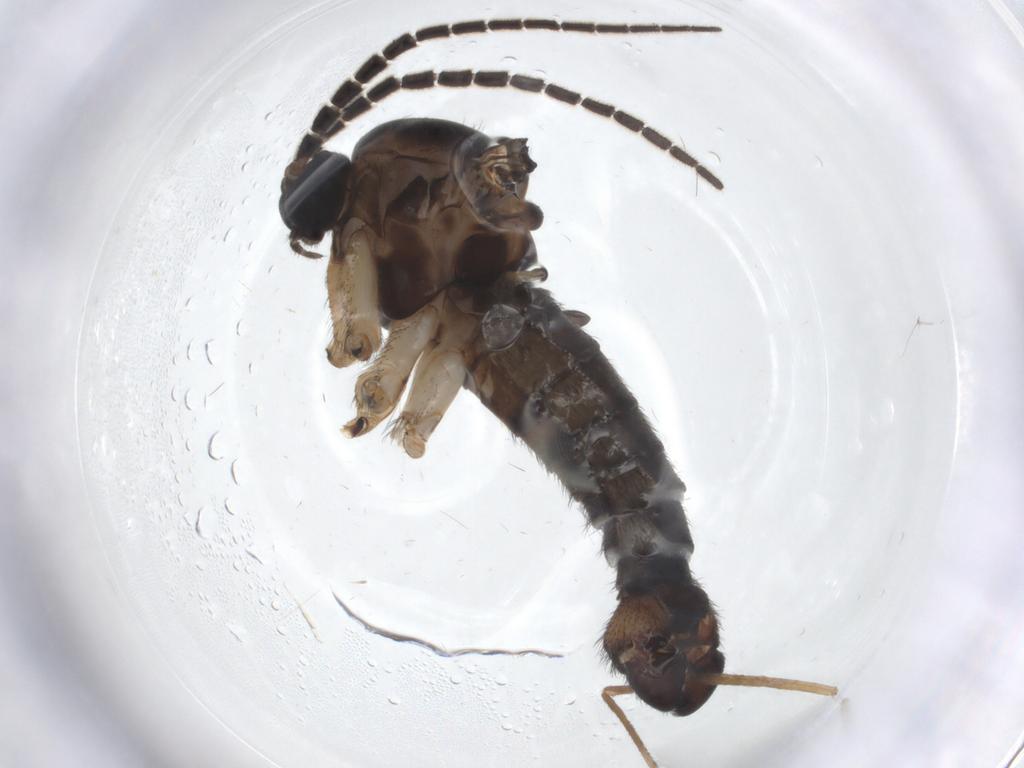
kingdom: Animalia
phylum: Arthropoda
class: Insecta
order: Diptera
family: Sciaridae
